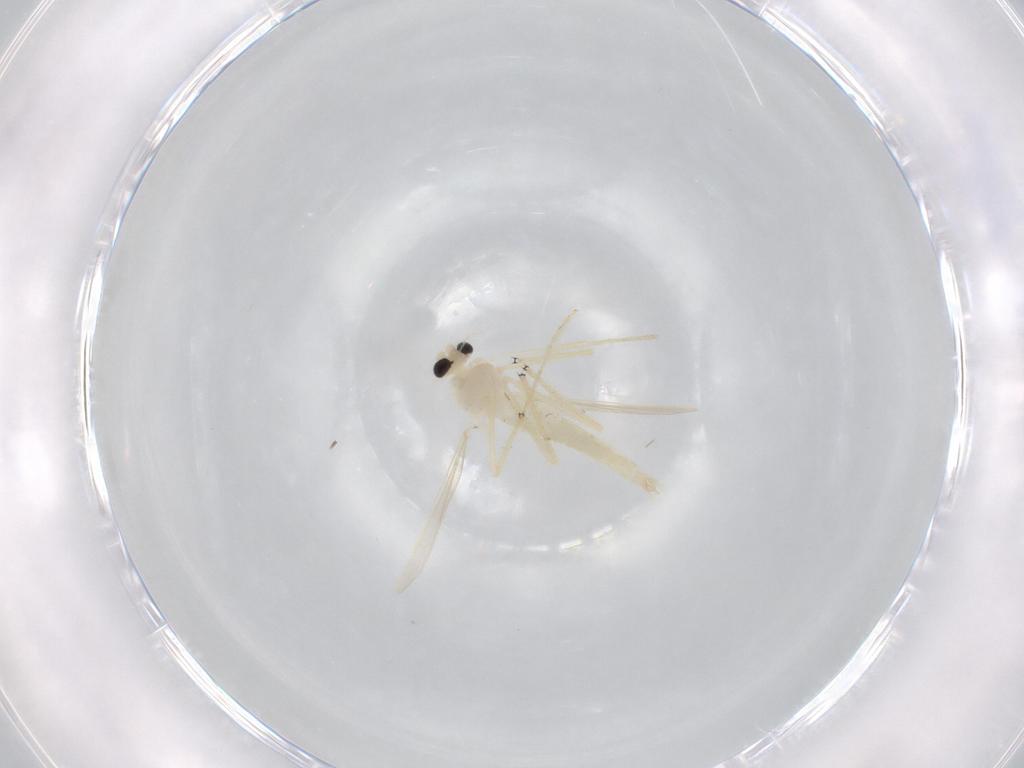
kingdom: Animalia
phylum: Arthropoda
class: Insecta
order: Diptera
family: Chironomidae
